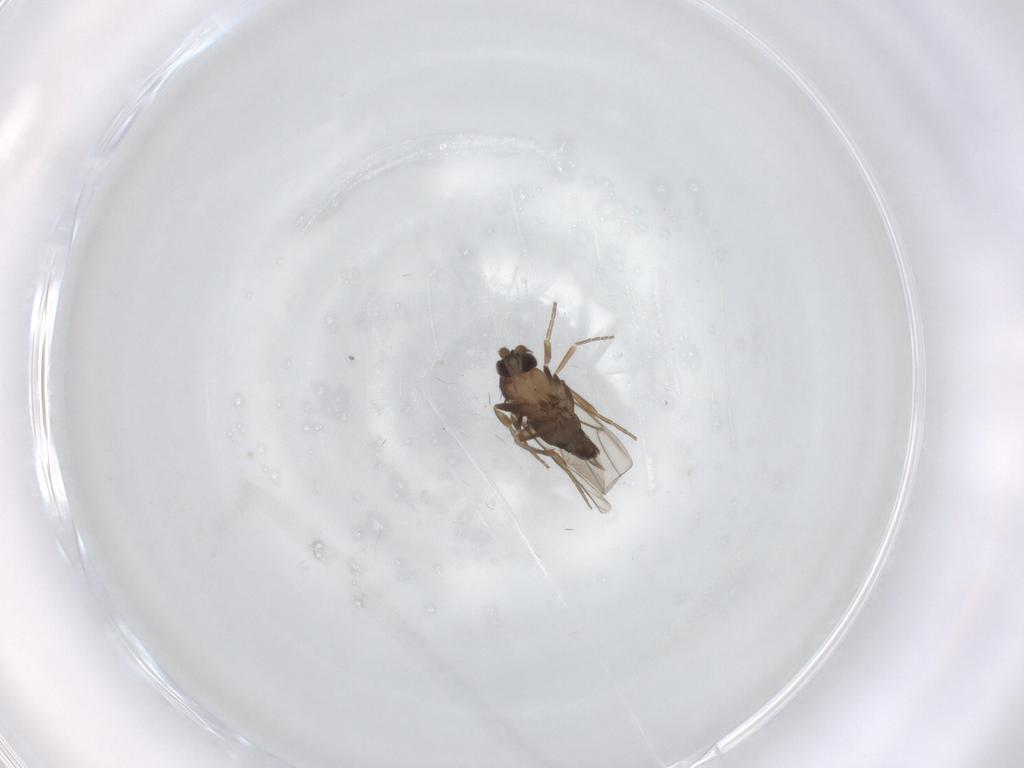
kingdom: Animalia
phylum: Arthropoda
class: Insecta
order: Diptera
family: Phoridae
